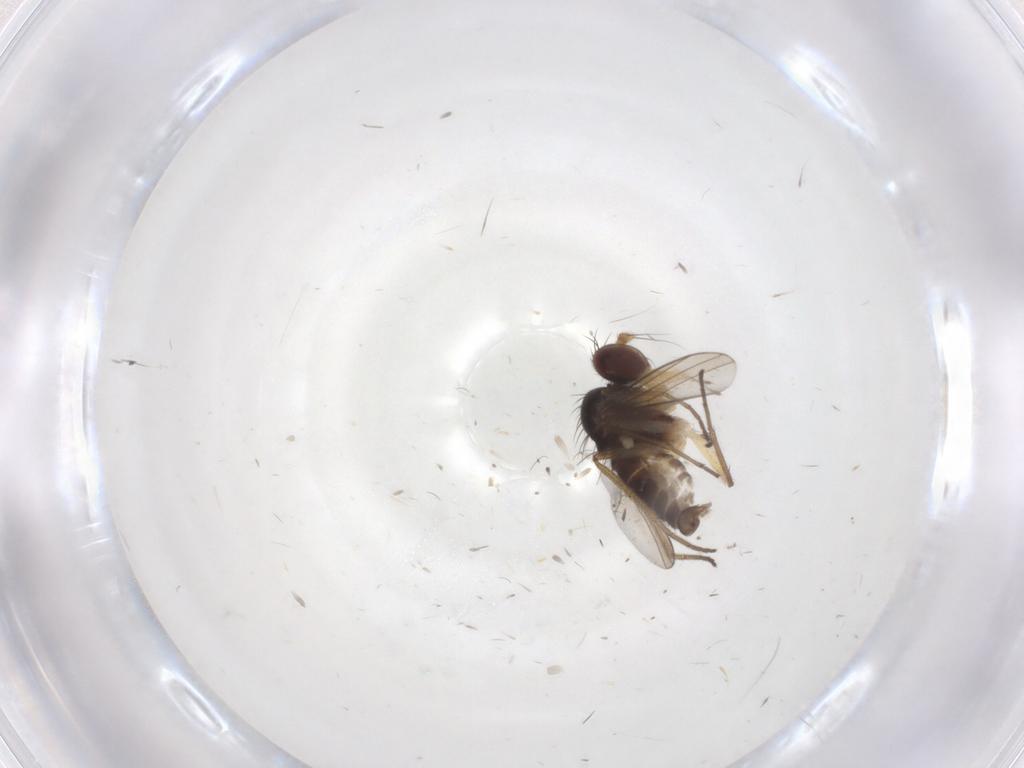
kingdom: Animalia
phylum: Arthropoda
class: Insecta
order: Diptera
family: Dolichopodidae
